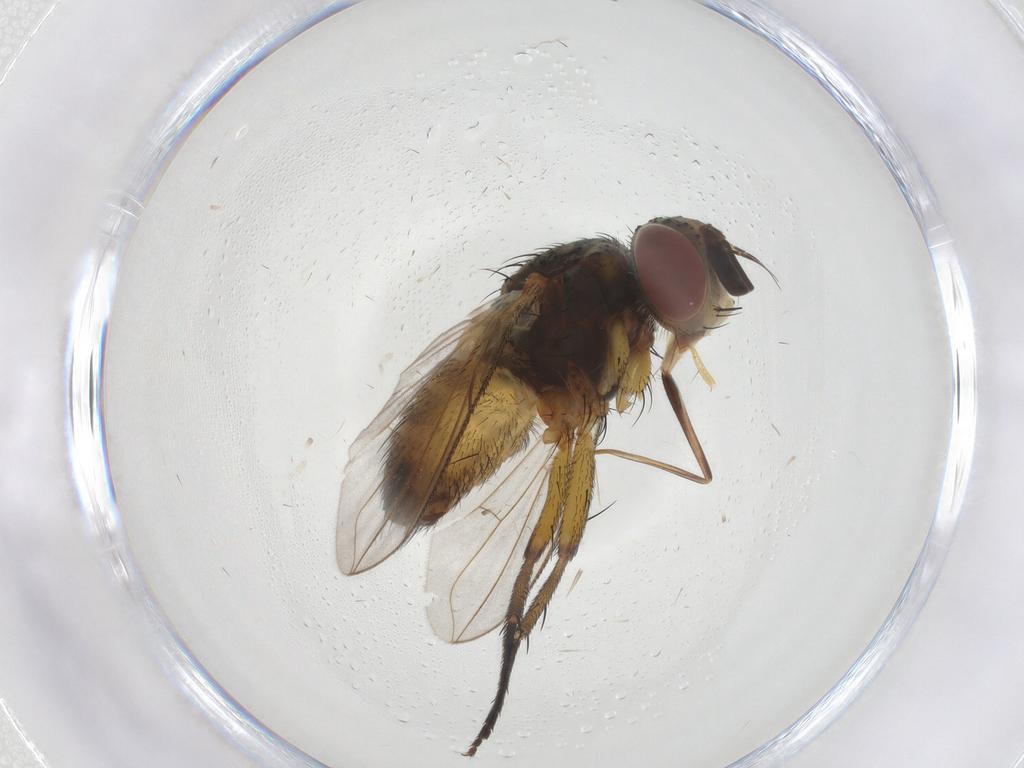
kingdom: Animalia
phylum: Arthropoda
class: Insecta
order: Diptera
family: Tachinidae
